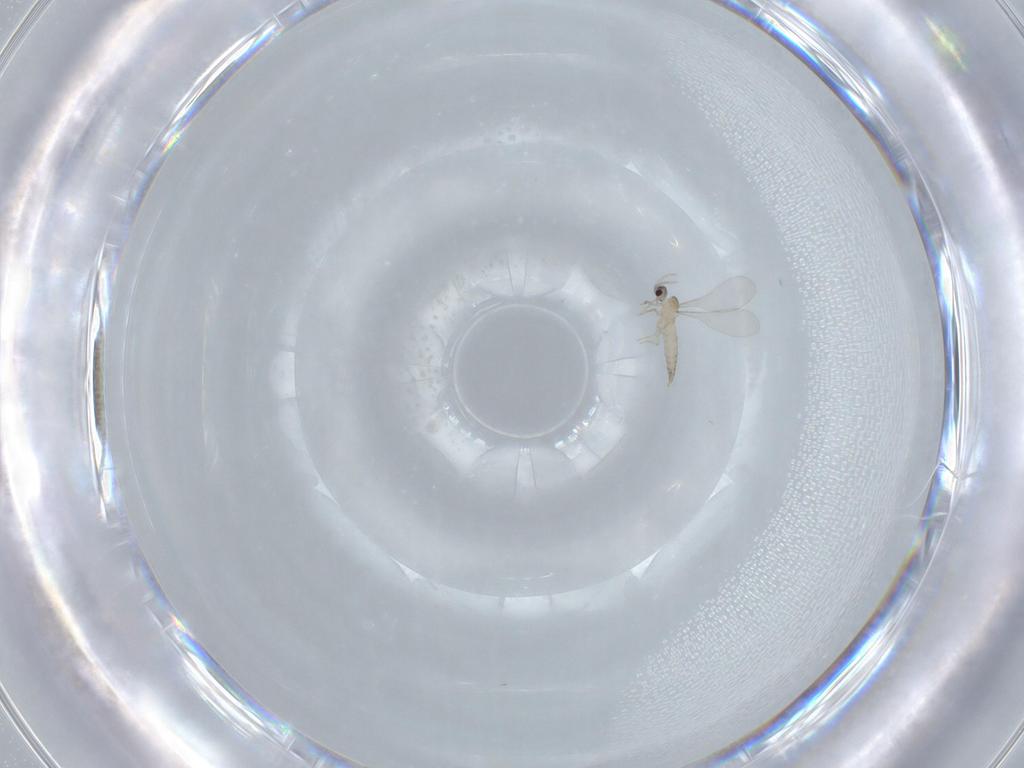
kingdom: Animalia
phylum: Arthropoda
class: Insecta
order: Diptera
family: Cecidomyiidae
